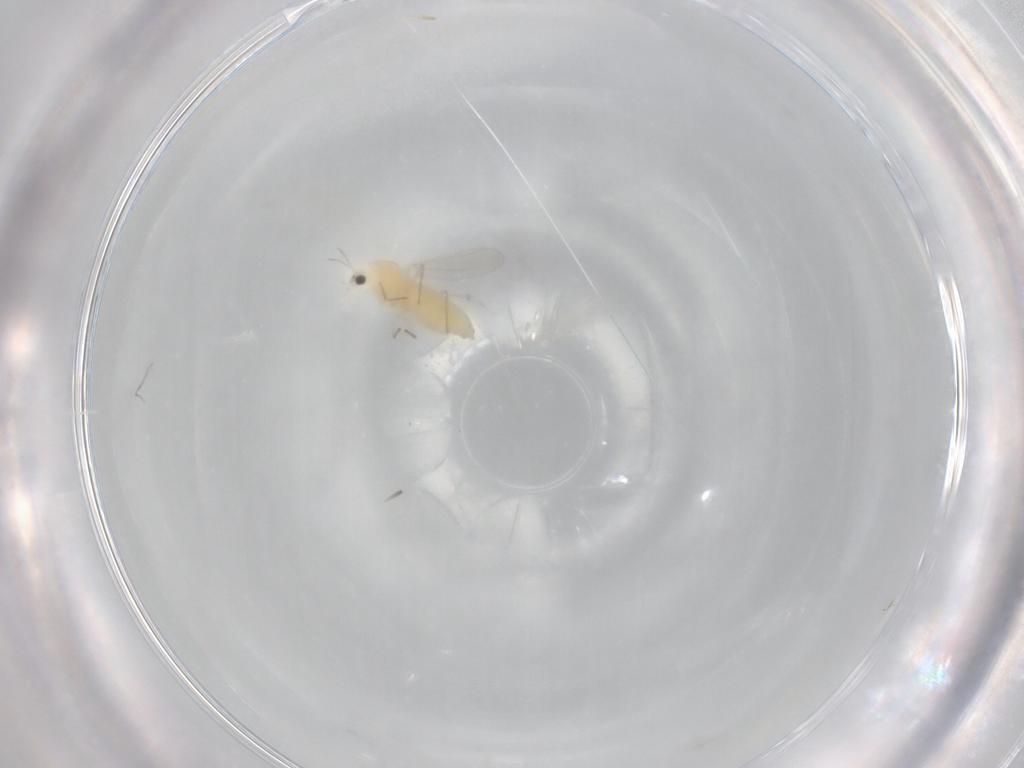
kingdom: Animalia
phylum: Arthropoda
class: Insecta
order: Diptera
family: Chironomidae
